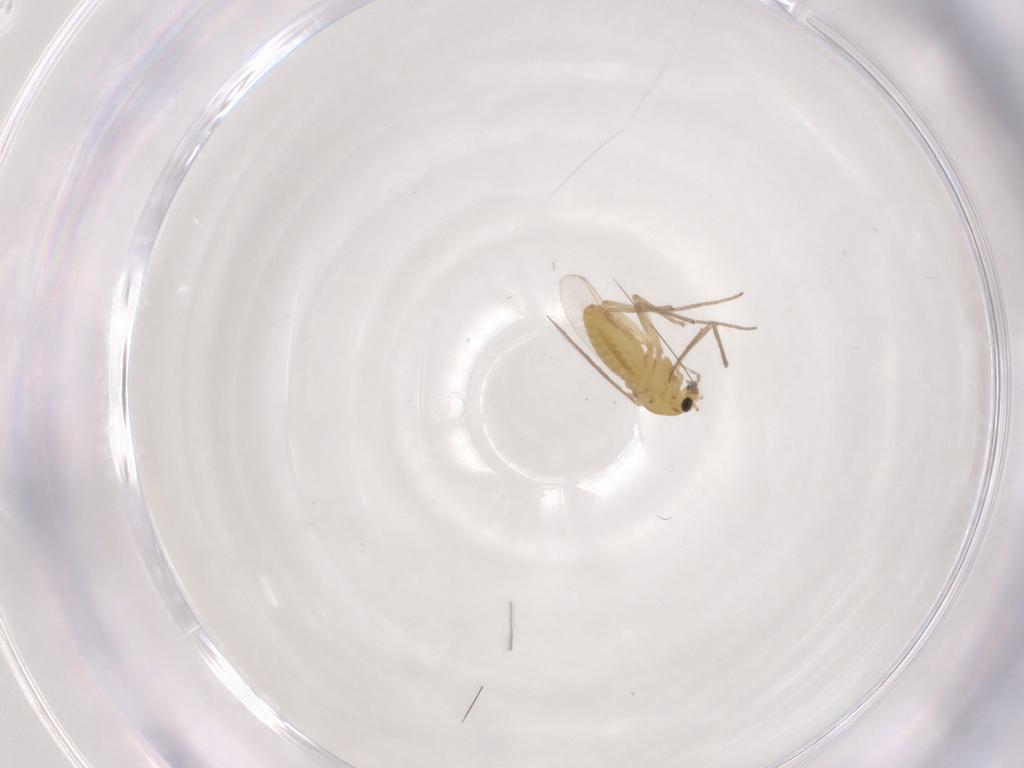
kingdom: Animalia
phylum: Arthropoda
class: Insecta
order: Diptera
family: Chironomidae
